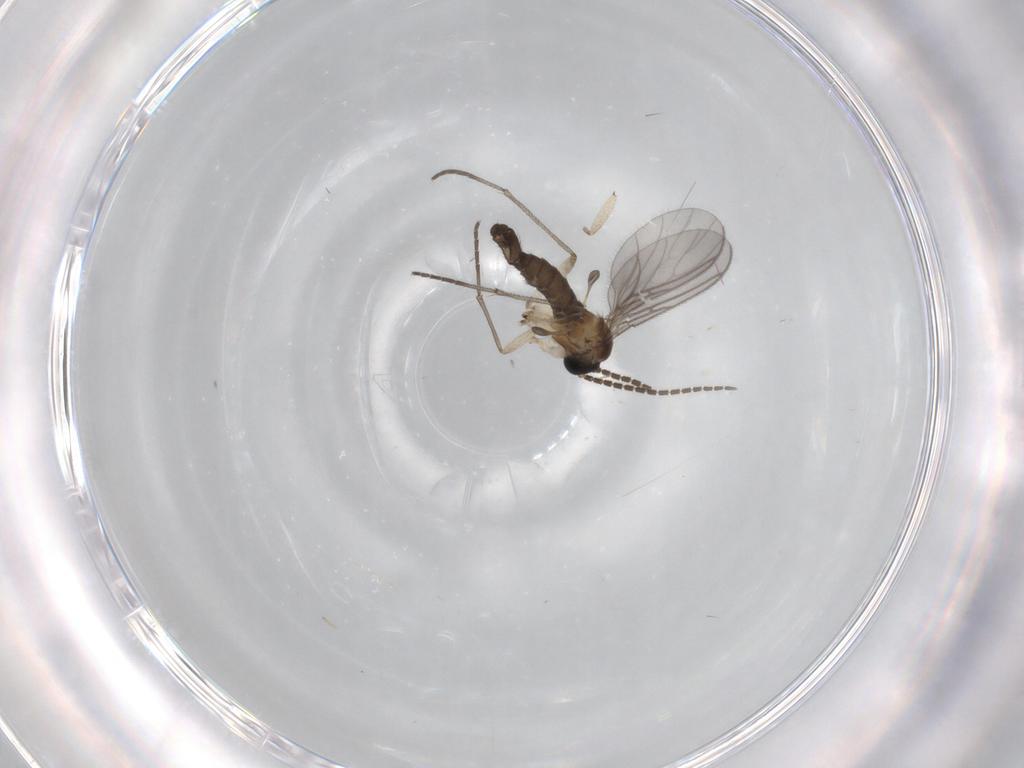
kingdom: Animalia
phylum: Arthropoda
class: Insecta
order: Diptera
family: Sciaridae
